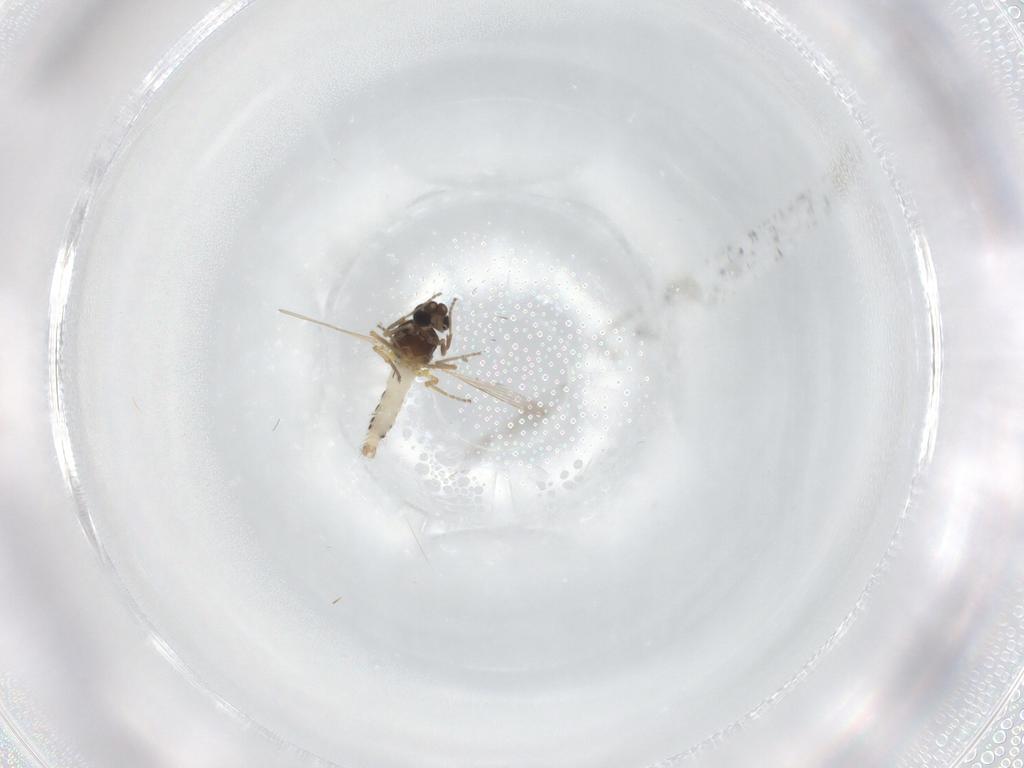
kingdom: Animalia
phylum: Arthropoda
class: Insecta
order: Diptera
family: Ceratopogonidae
